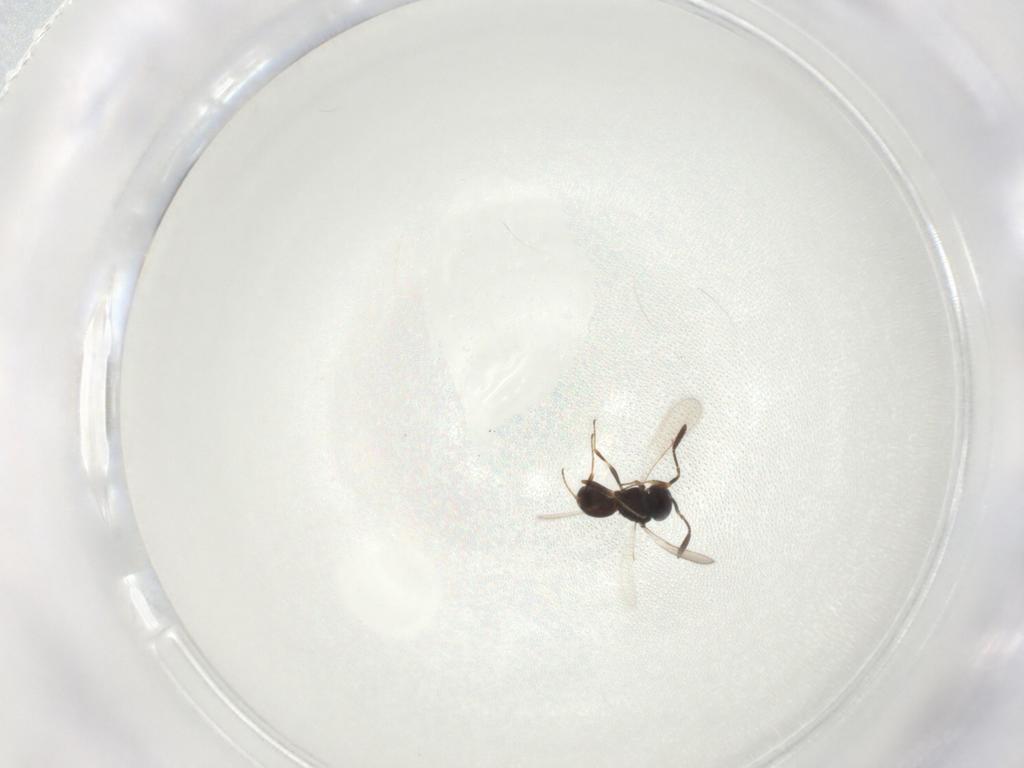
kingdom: Animalia
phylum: Arthropoda
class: Insecta
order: Hymenoptera
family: Scelionidae
